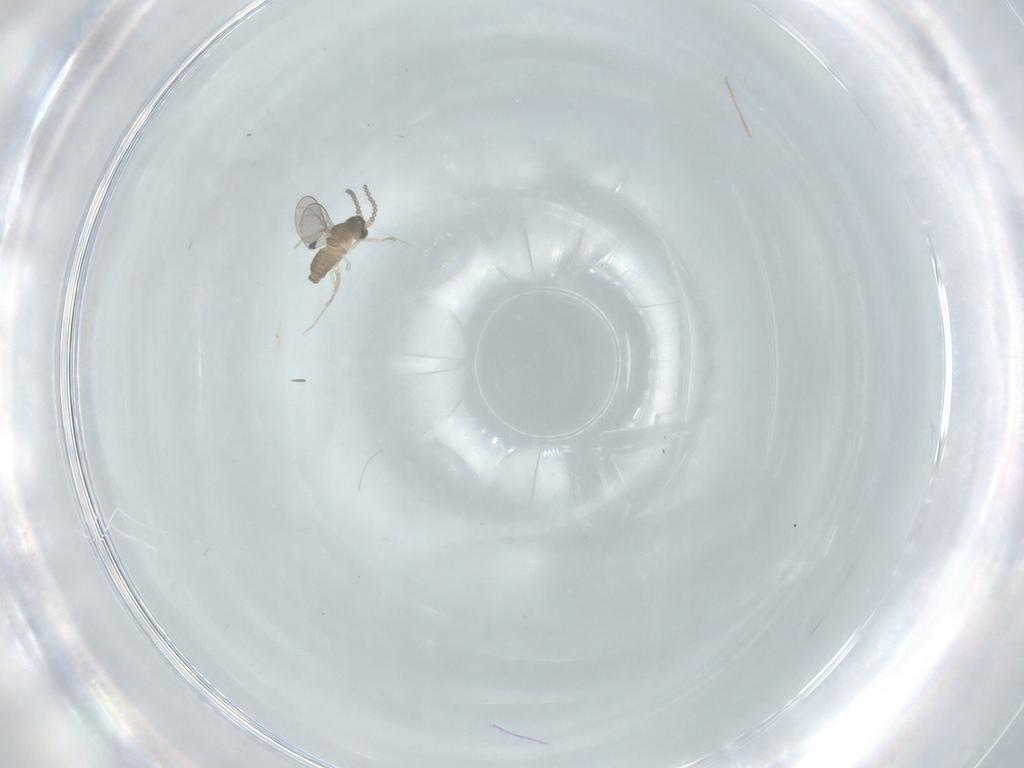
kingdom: Animalia
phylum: Arthropoda
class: Insecta
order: Diptera
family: Cecidomyiidae
